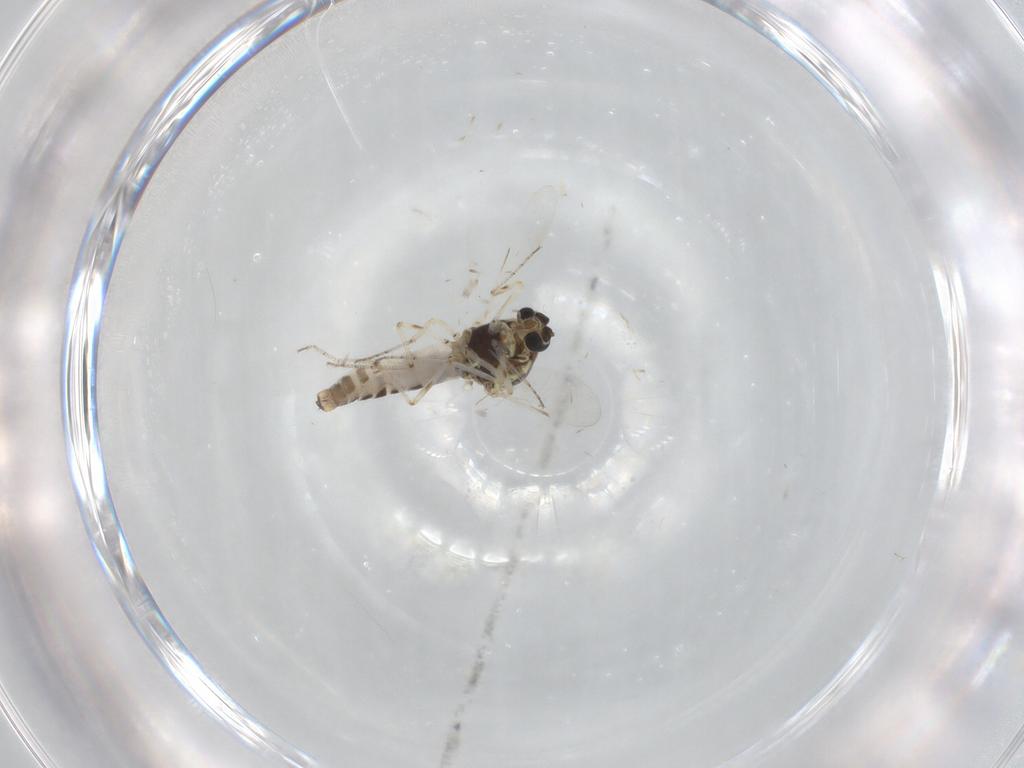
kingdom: Animalia
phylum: Arthropoda
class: Insecta
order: Diptera
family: Ceratopogonidae
